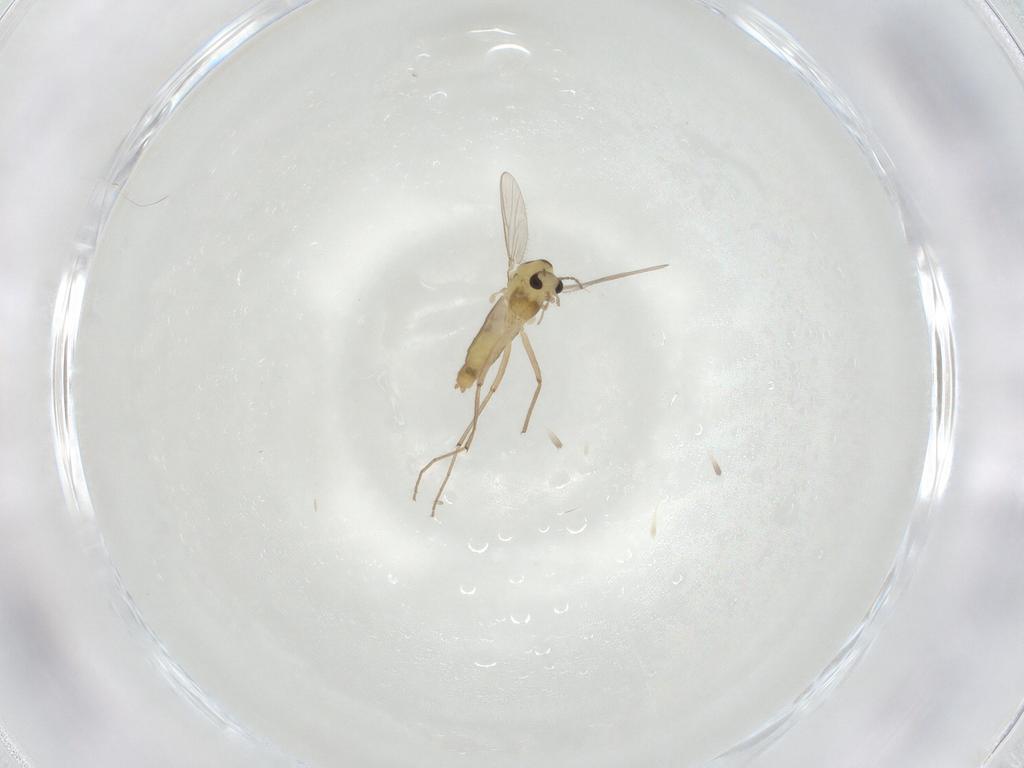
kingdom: Animalia
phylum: Arthropoda
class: Insecta
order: Diptera
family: Chironomidae
